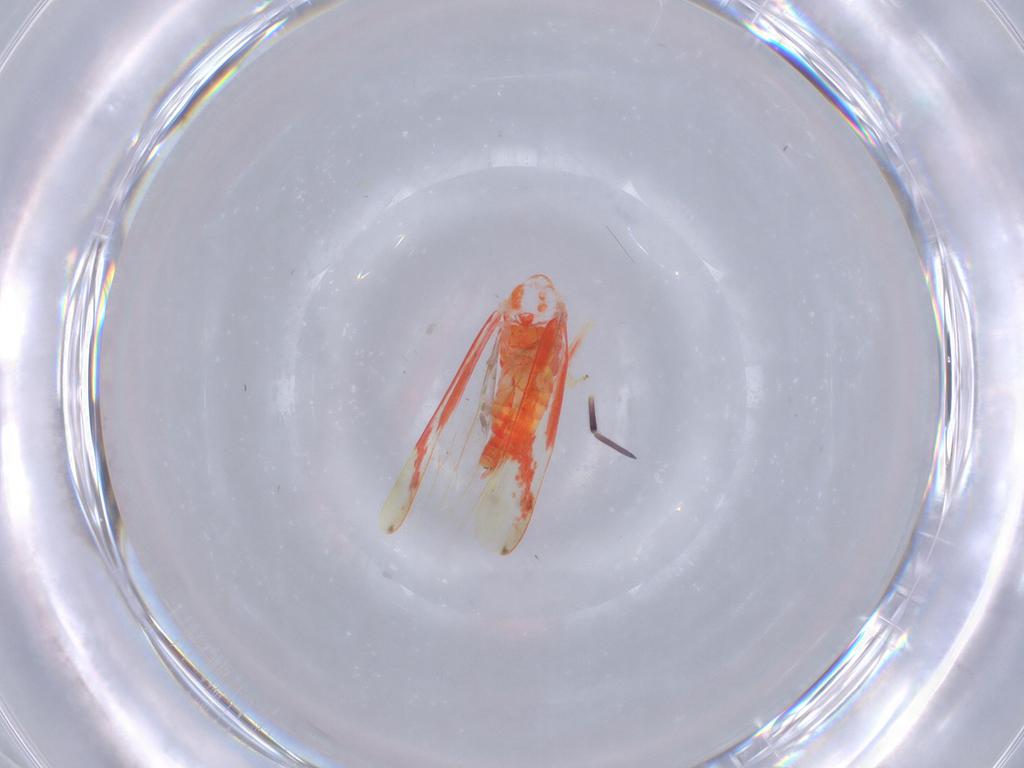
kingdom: Animalia
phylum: Arthropoda
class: Insecta
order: Hemiptera
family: Cicadellidae
